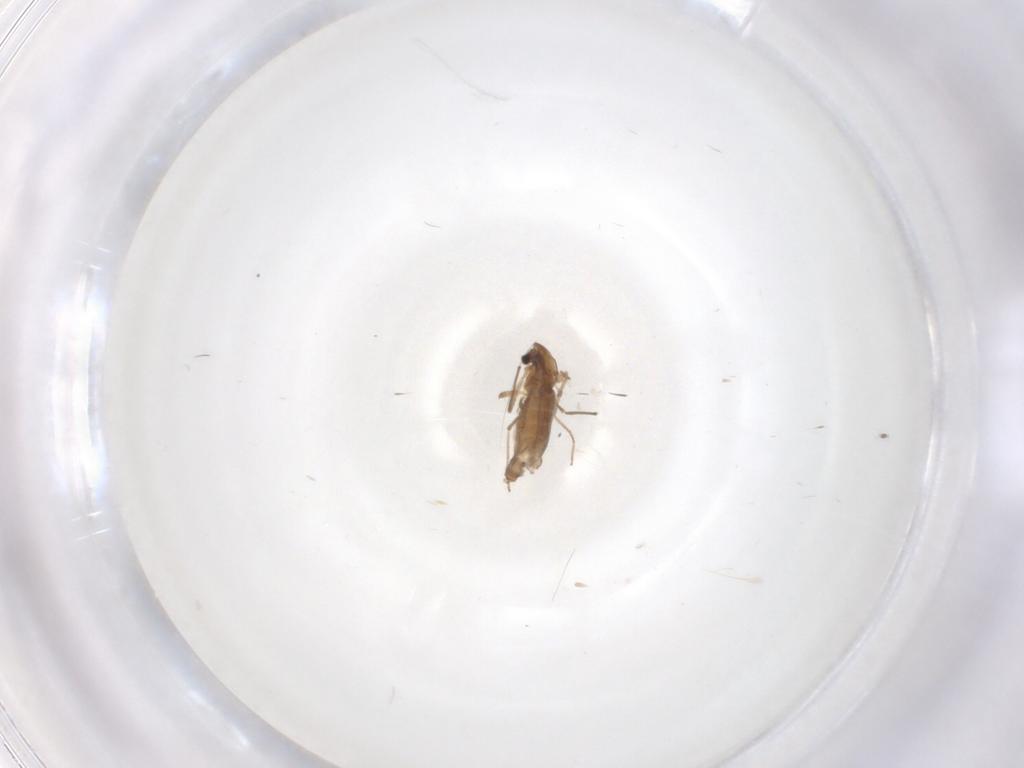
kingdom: Animalia
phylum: Arthropoda
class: Insecta
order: Diptera
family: Chironomidae
